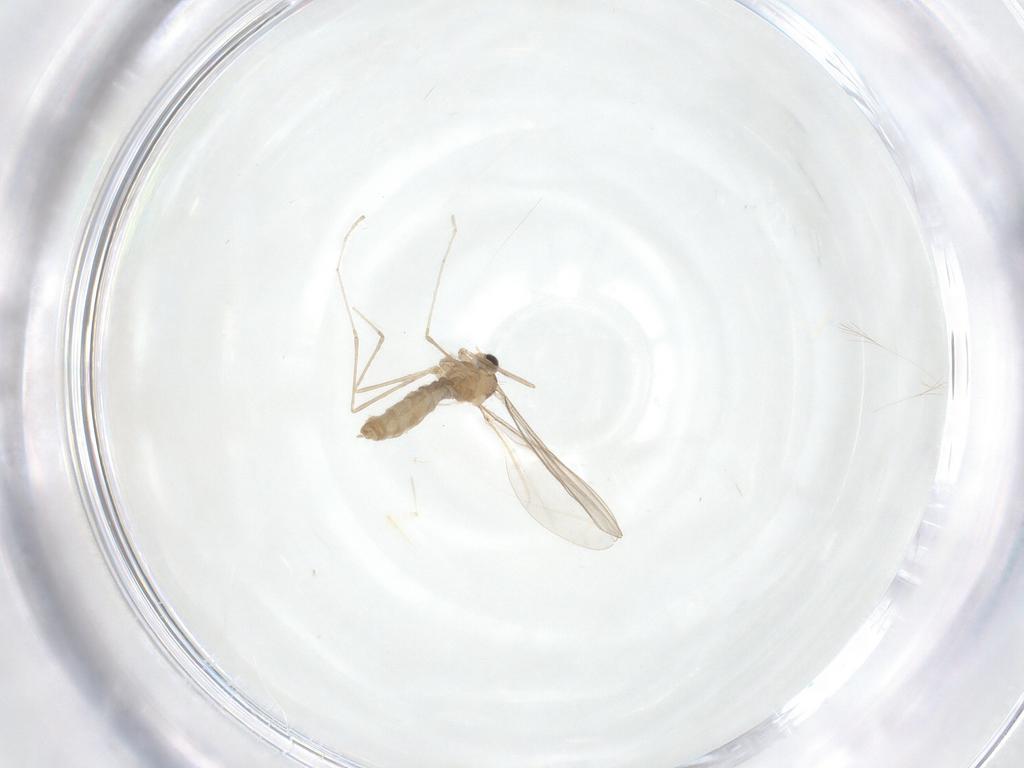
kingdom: Animalia
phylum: Arthropoda
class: Insecta
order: Diptera
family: Cecidomyiidae
